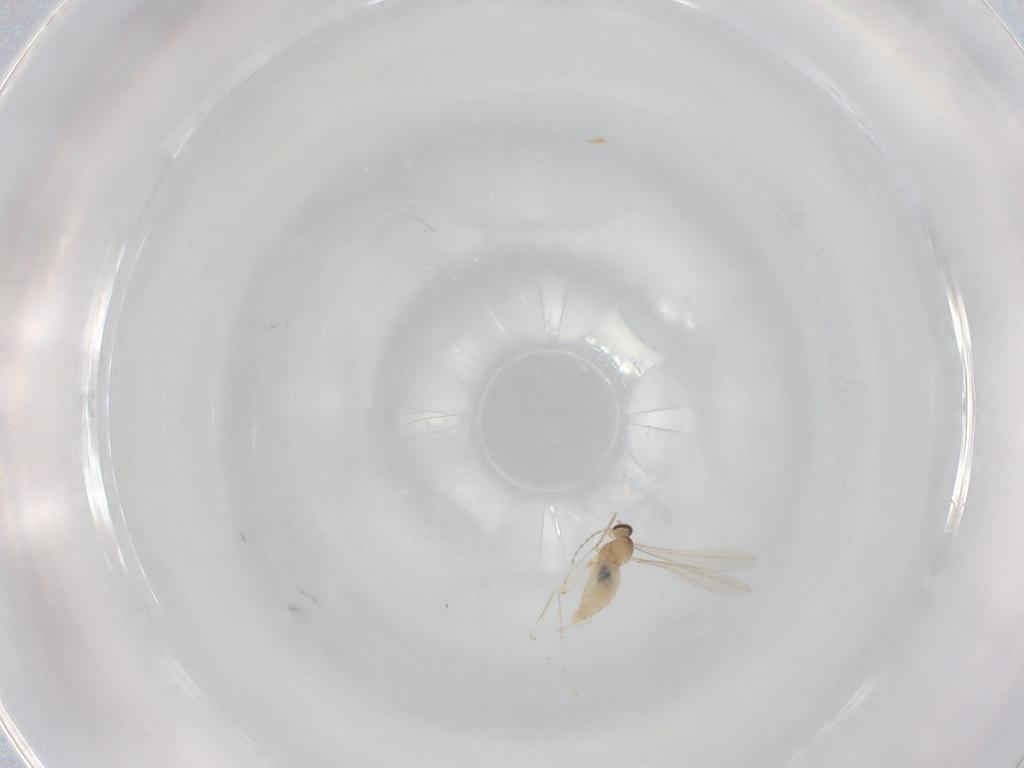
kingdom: Animalia
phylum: Arthropoda
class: Insecta
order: Diptera
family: Cecidomyiidae
